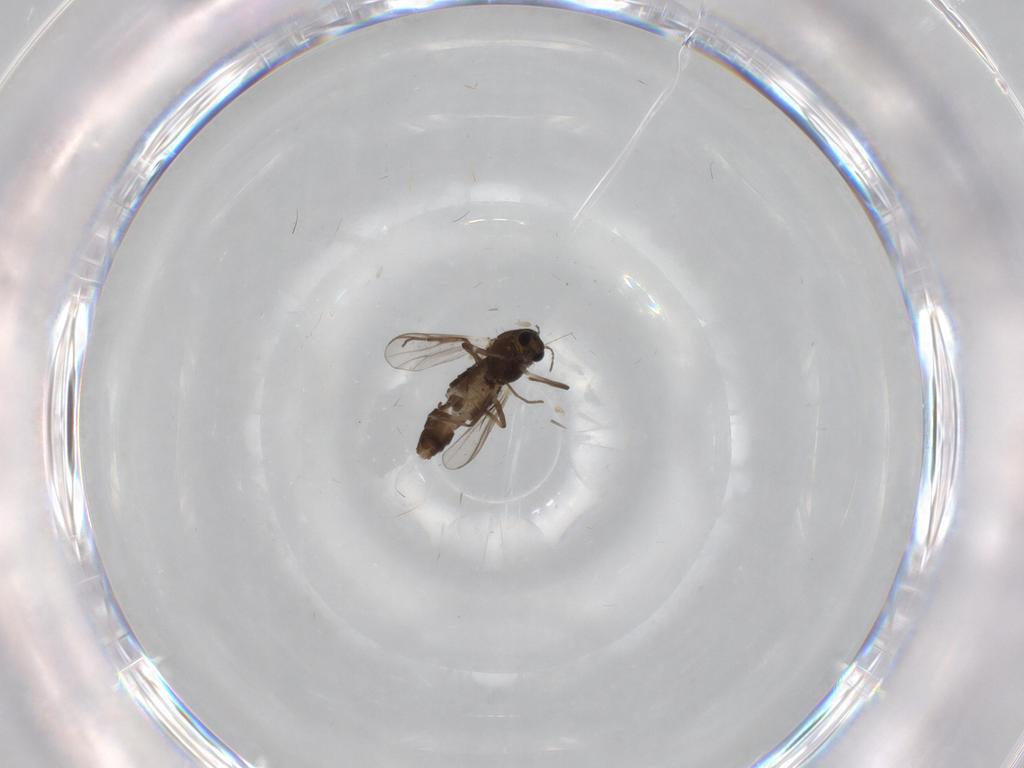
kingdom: Animalia
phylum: Arthropoda
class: Insecta
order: Diptera
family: Chironomidae
